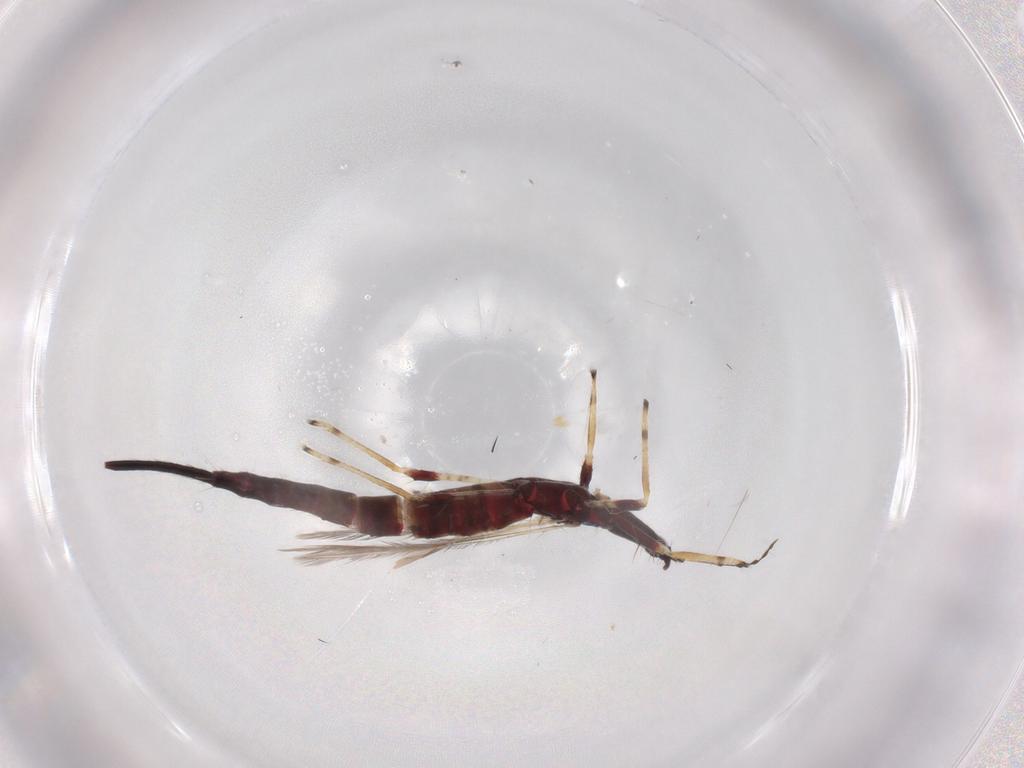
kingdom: Animalia
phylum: Arthropoda
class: Insecta
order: Thysanoptera
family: Phlaeothripidae
